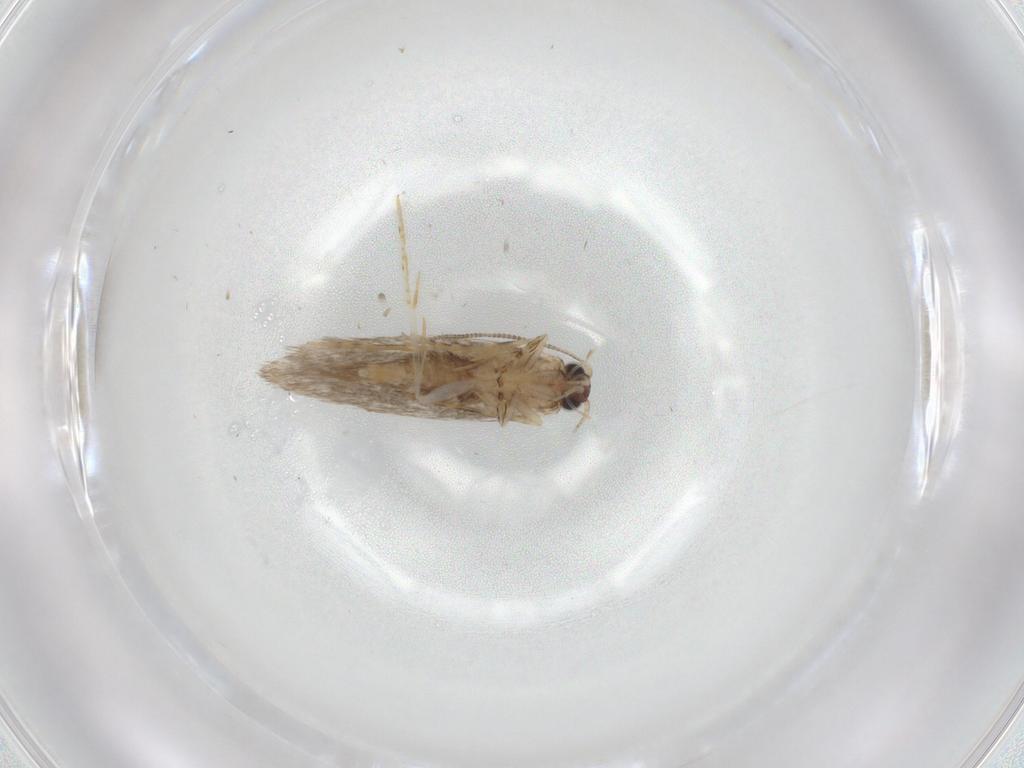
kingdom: Animalia
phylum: Arthropoda
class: Insecta
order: Lepidoptera
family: Tineidae
